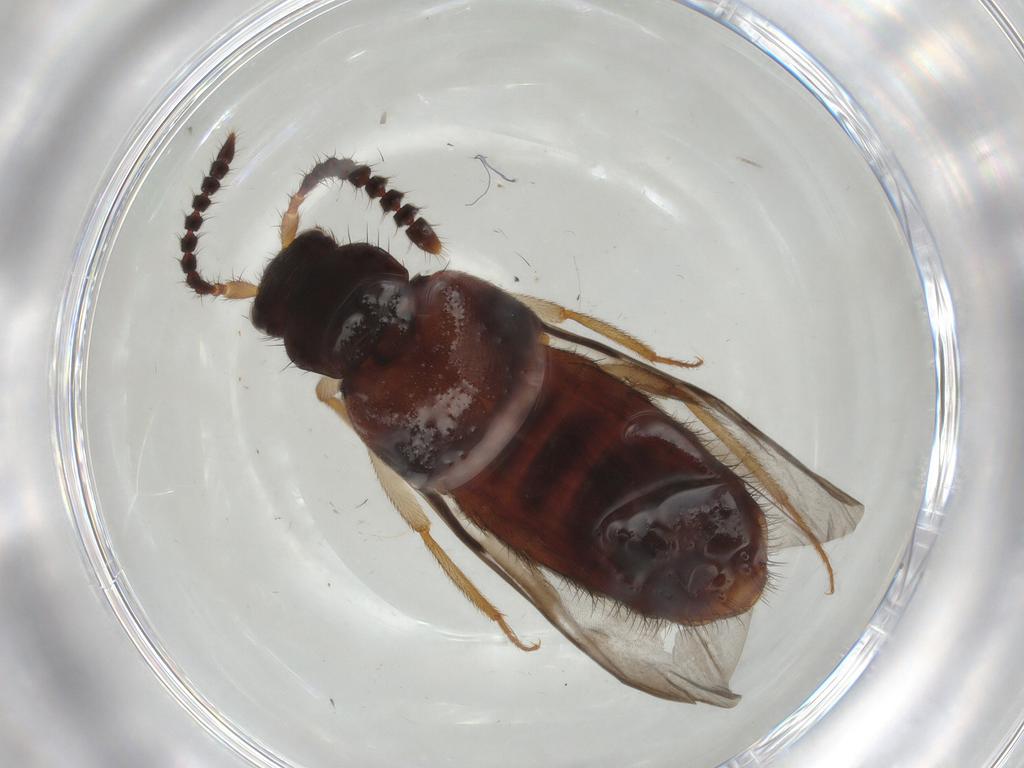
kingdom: Animalia
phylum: Arthropoda
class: Insecta
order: Coleoptera
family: Staphylinidae
